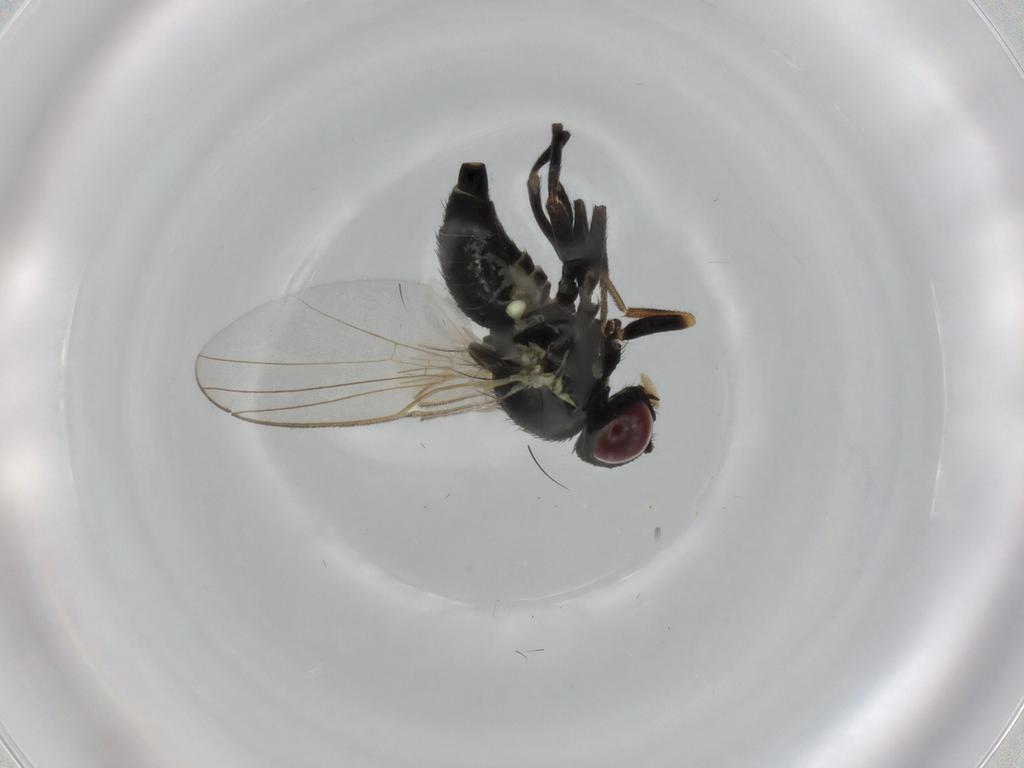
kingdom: Animalia
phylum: Arthropoda
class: Insecta
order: Diptera
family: Agromyzidae
